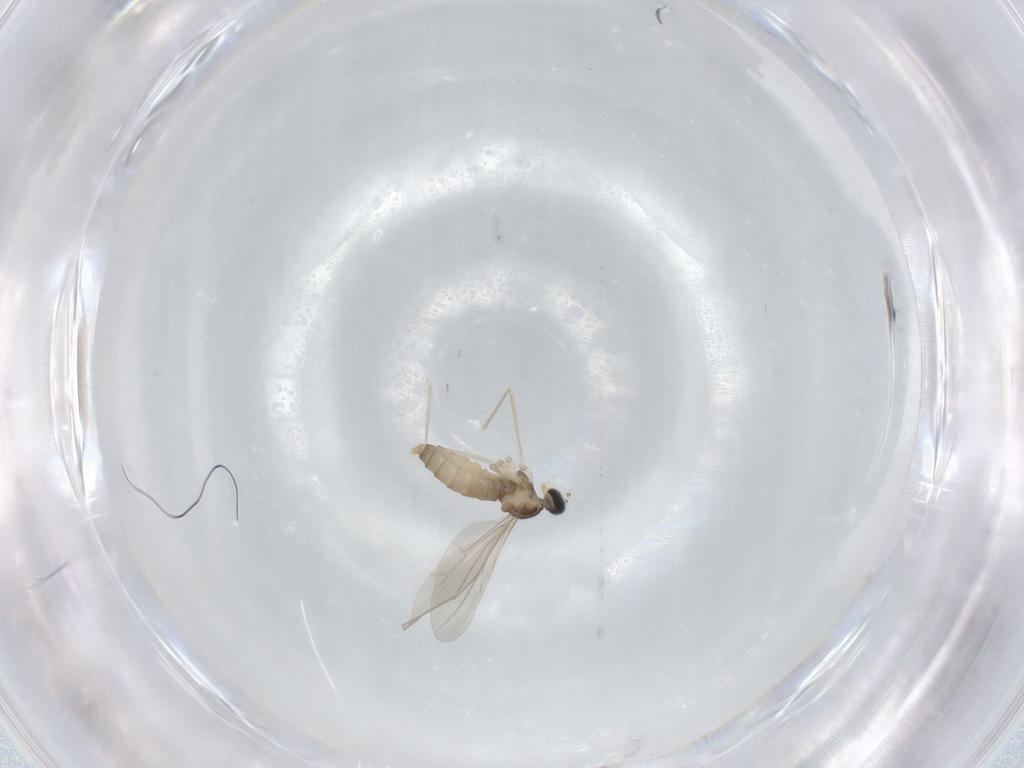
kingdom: Animalia
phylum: Arthropoda
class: Insecta
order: Diptera
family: Cecidomyiidae
